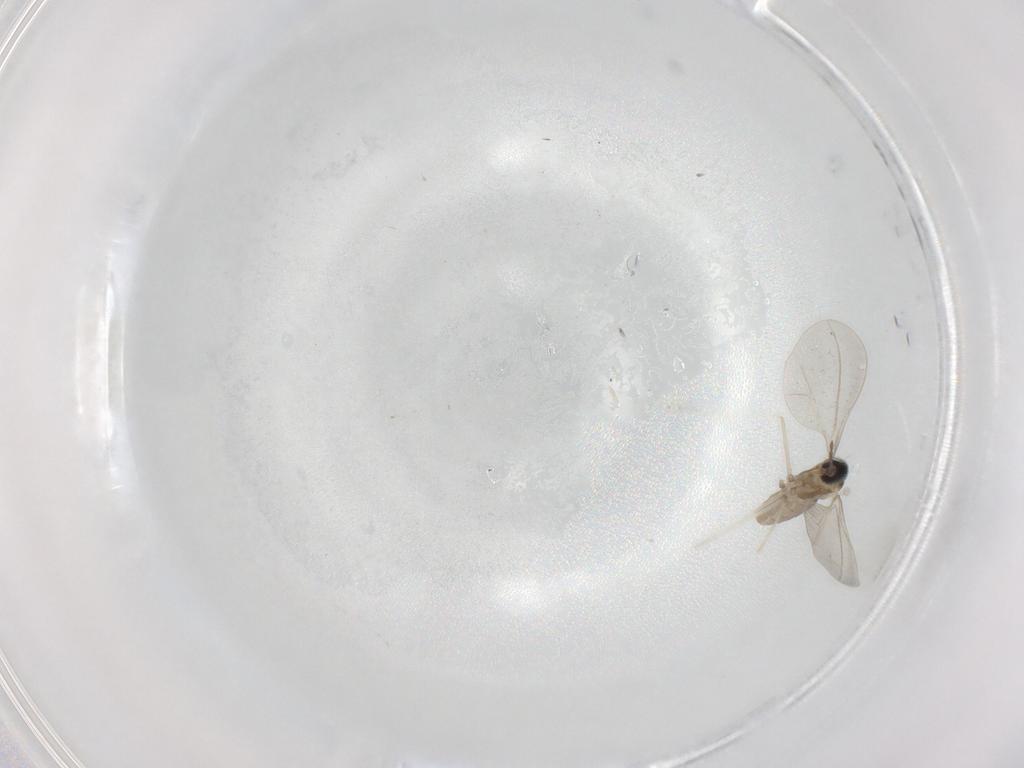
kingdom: Animalia
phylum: Arthropoda
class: Insecta
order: Diptera
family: Cecidomyiidae
